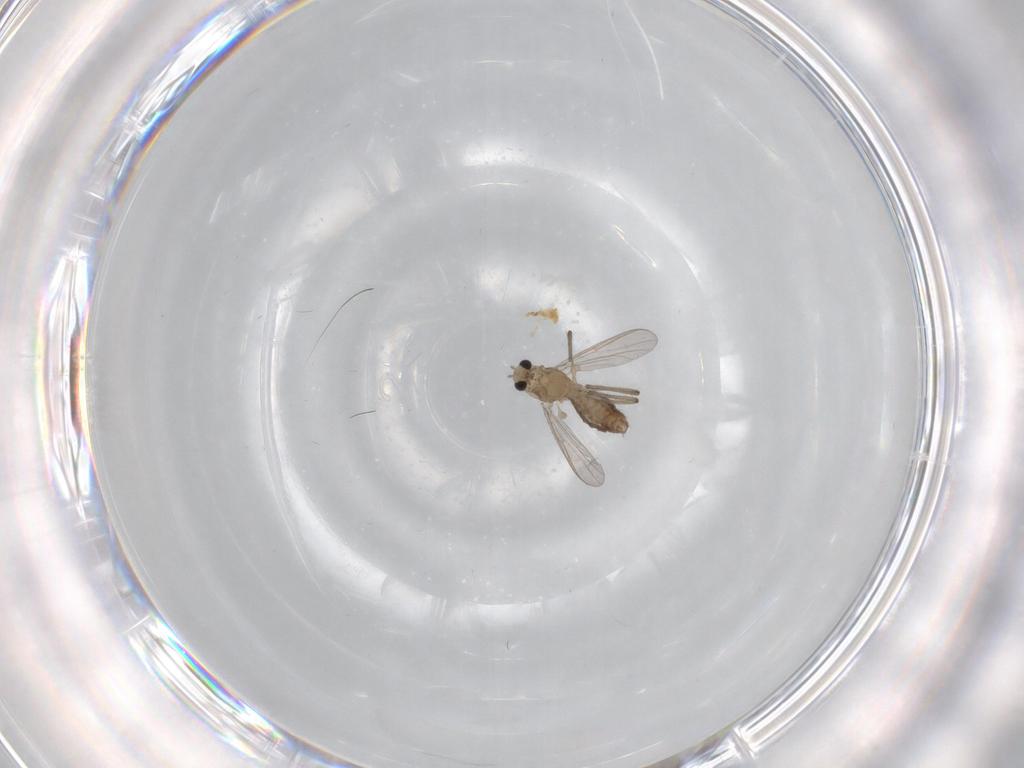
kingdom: Animalia
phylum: Arthropoda
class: Insecta
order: Diptera
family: Chironomidae
